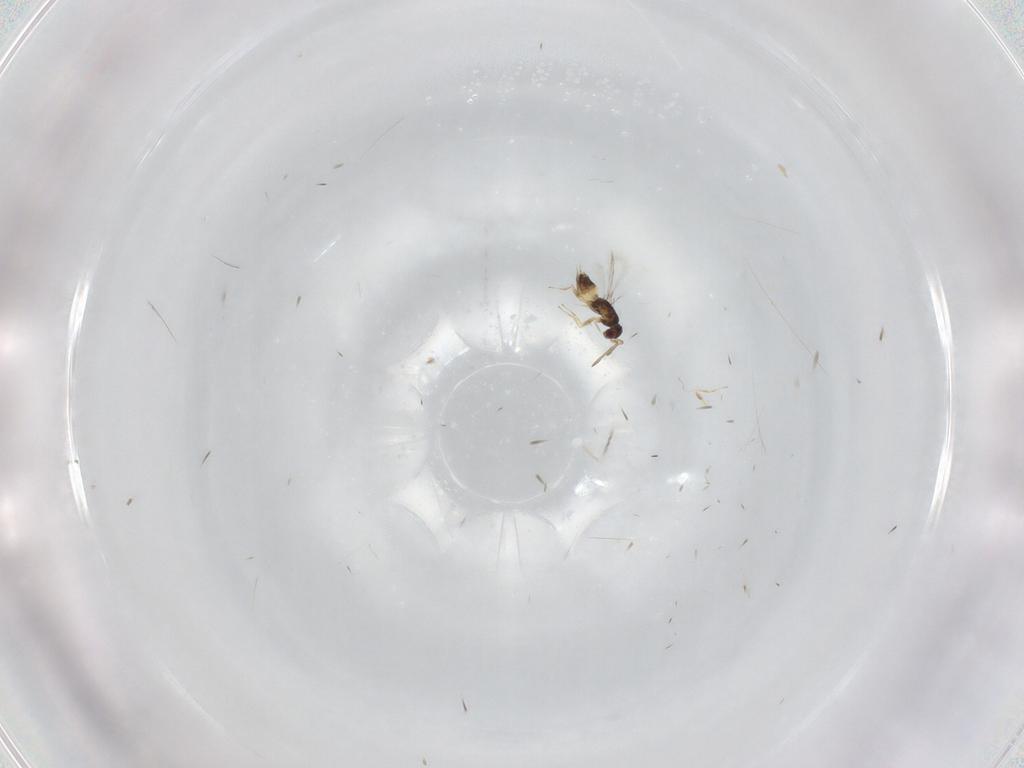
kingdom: Animalia
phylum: Arthropoda
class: Insecta
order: Hymenoptera
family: Mymaridae
